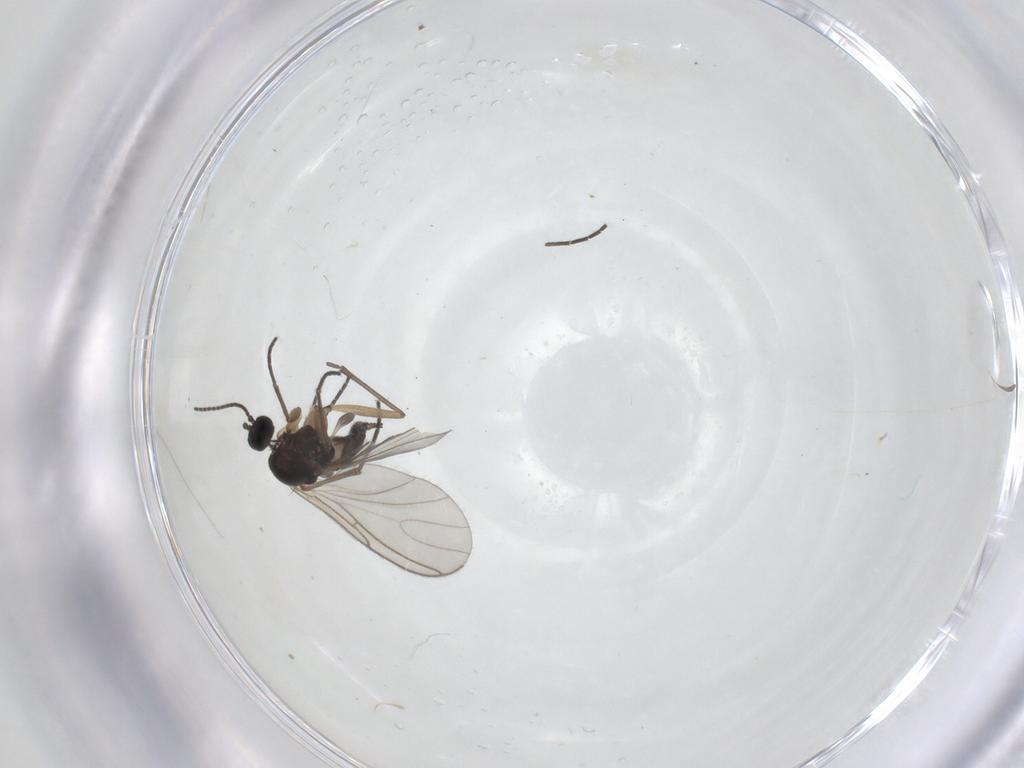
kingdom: Animalia
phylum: Arthropoda
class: Insecta
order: Diptera
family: Sciaridae
